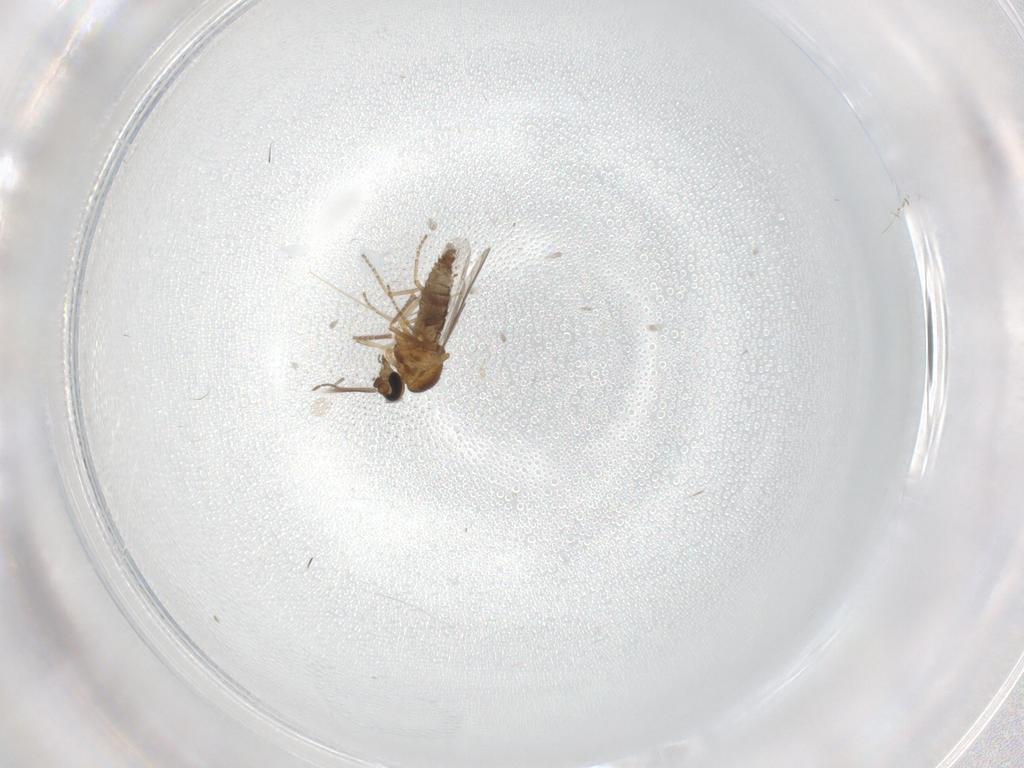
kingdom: Animalia
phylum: Arthropoda
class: Insecta
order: Diptera
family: Ceratopogonidae
